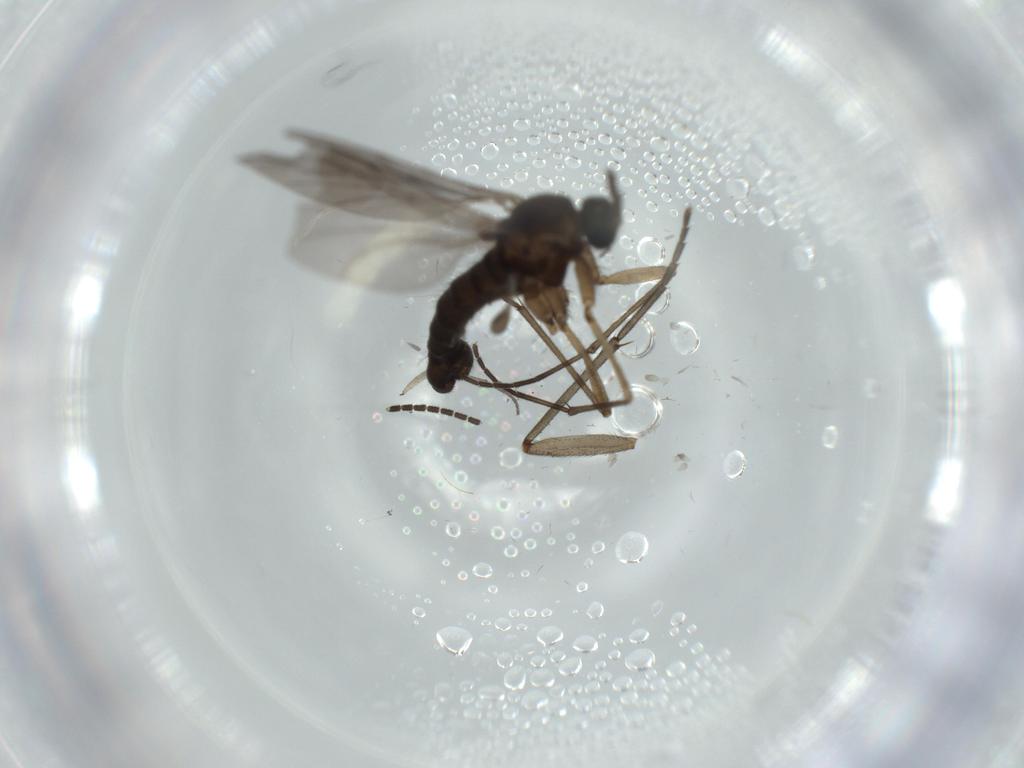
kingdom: Animalia
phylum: Arthropoda
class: Insecta
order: Diptera
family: Sciaridae
